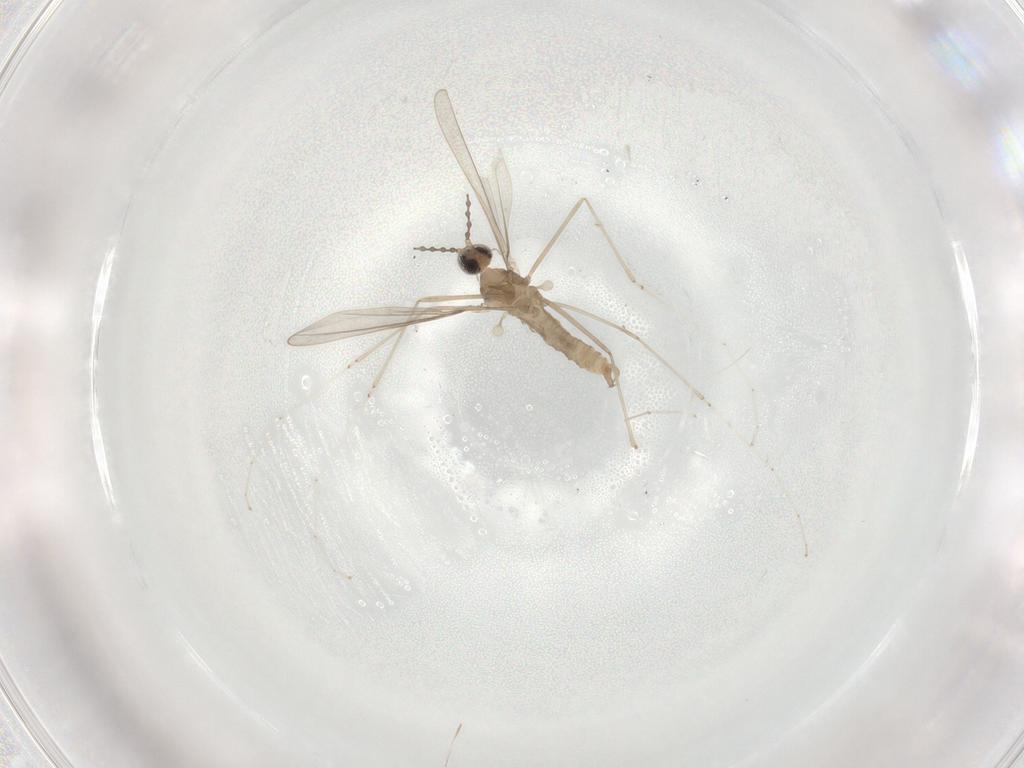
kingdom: Animalia
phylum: Arthropoda
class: Insecta
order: Diptera
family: Cecidomyiidae
